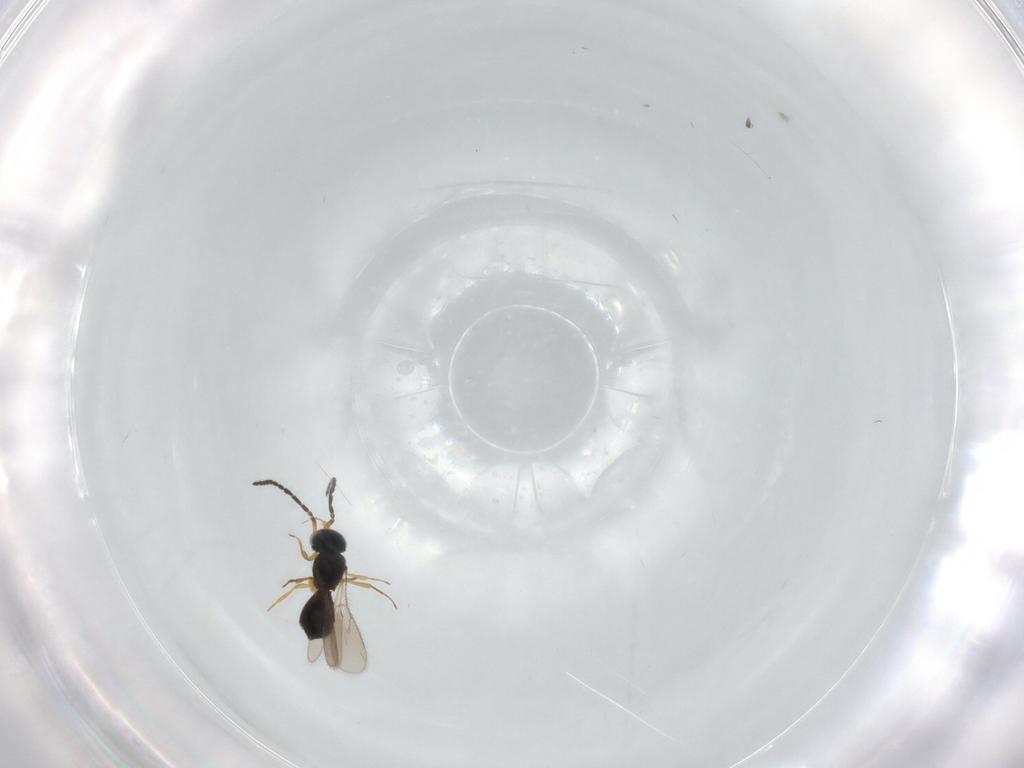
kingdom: Animalia
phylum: Arthropoda
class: Insecta
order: Hymenoptera
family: Scelionidae
